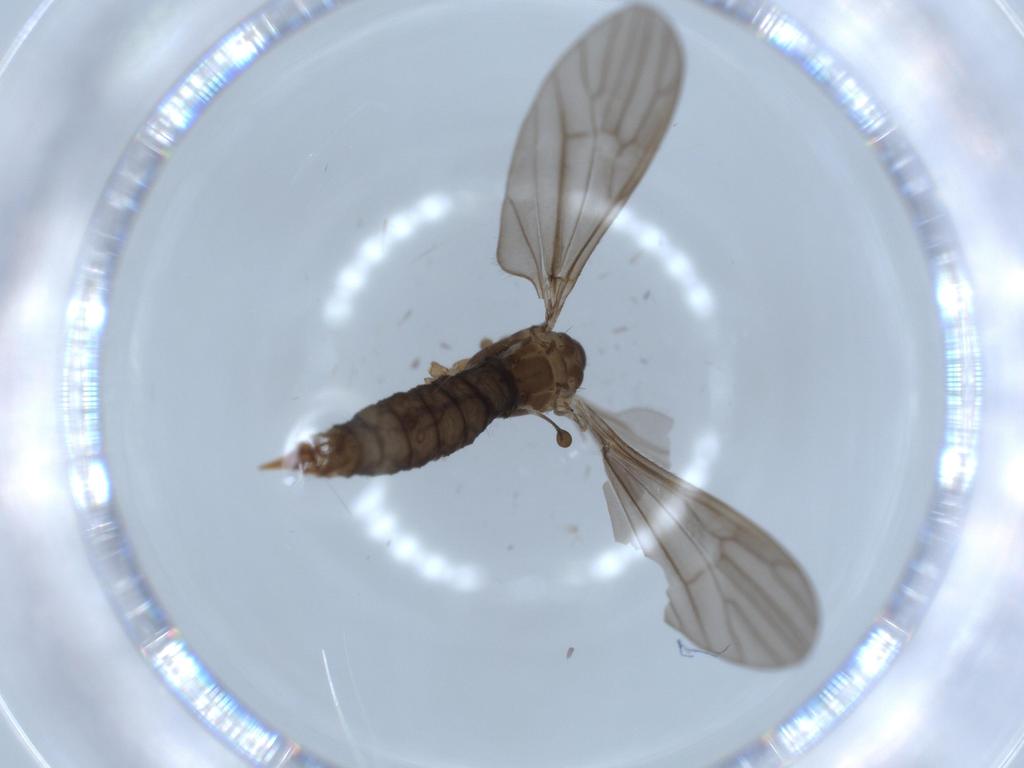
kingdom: Animalia
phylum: Arthropoda
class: Insecta
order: Diptera
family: Limoniidae
